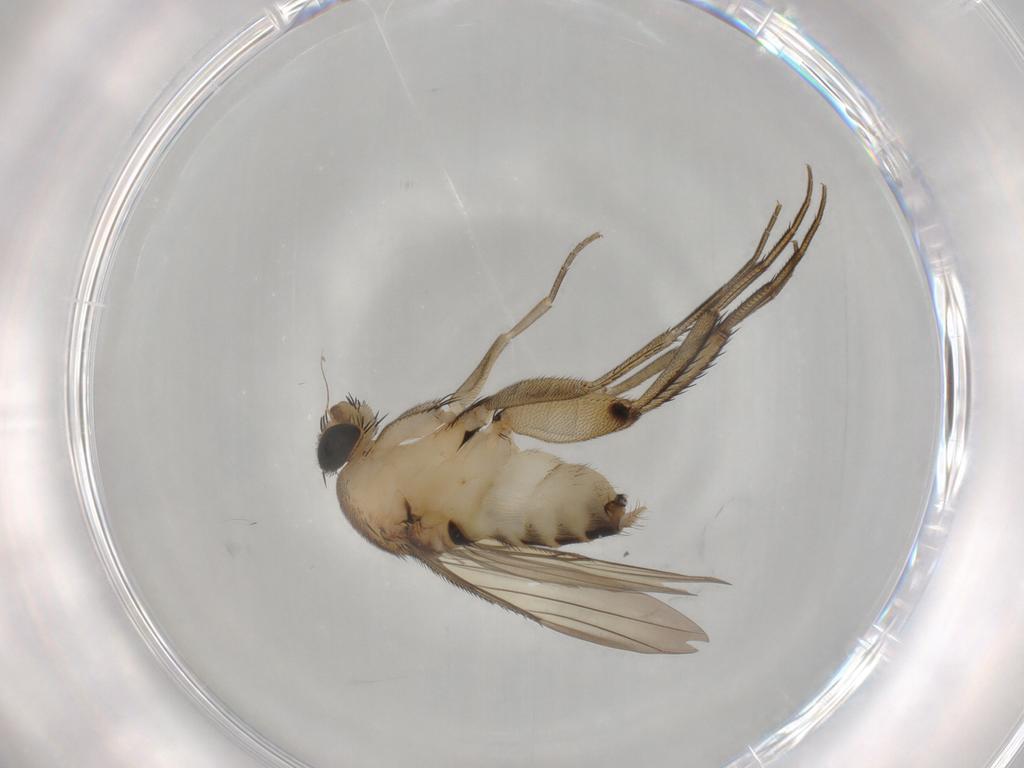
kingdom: Animalia
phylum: Arthropoda
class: Insecta
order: Diptera
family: Phoridae
